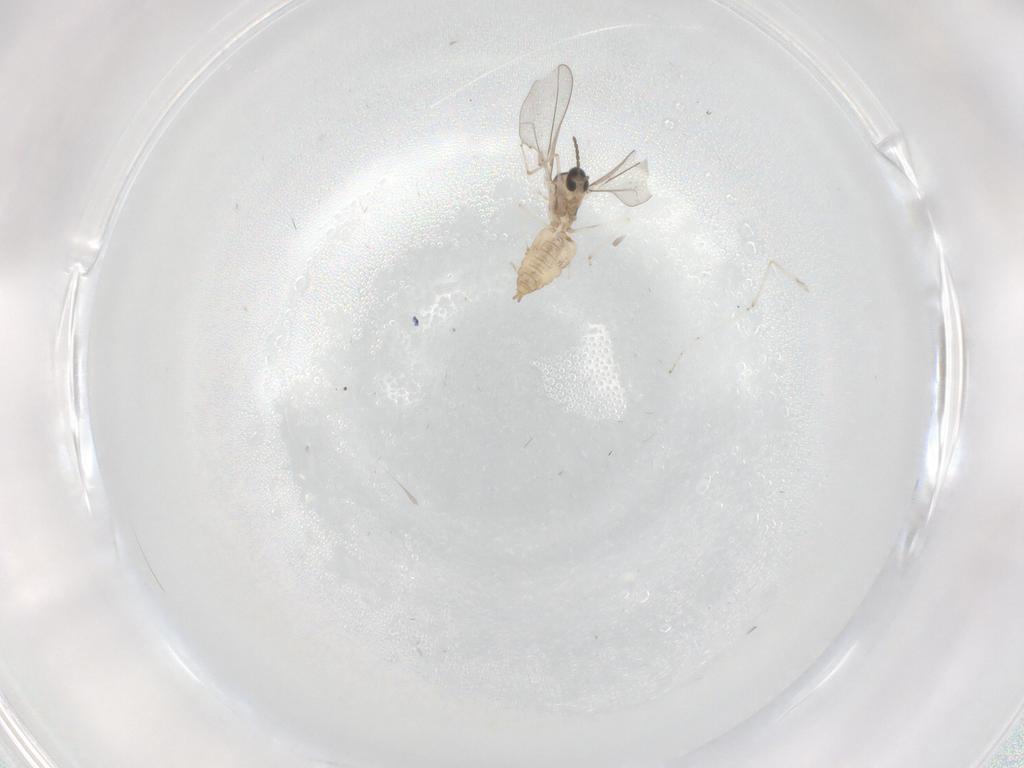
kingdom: Animalia
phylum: Arthropoda
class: Insecta
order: Diptera
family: Cecidomyiidae
